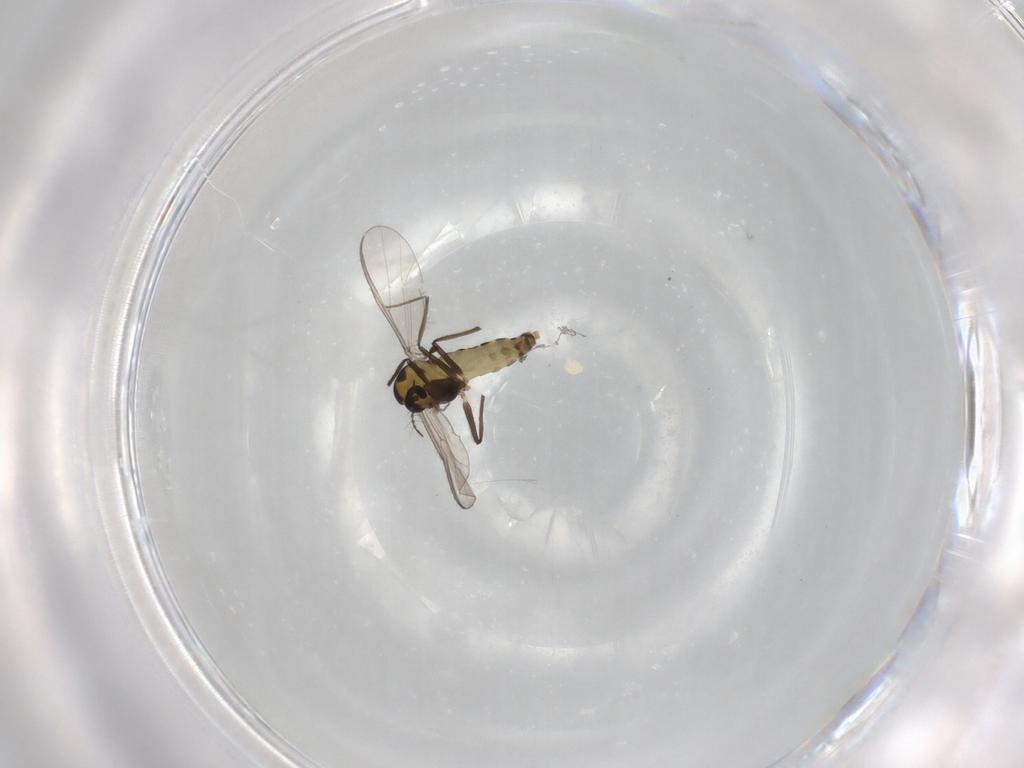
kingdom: Animalia
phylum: Arthropoda
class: Insecta
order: Diptera
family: Chironomidae
